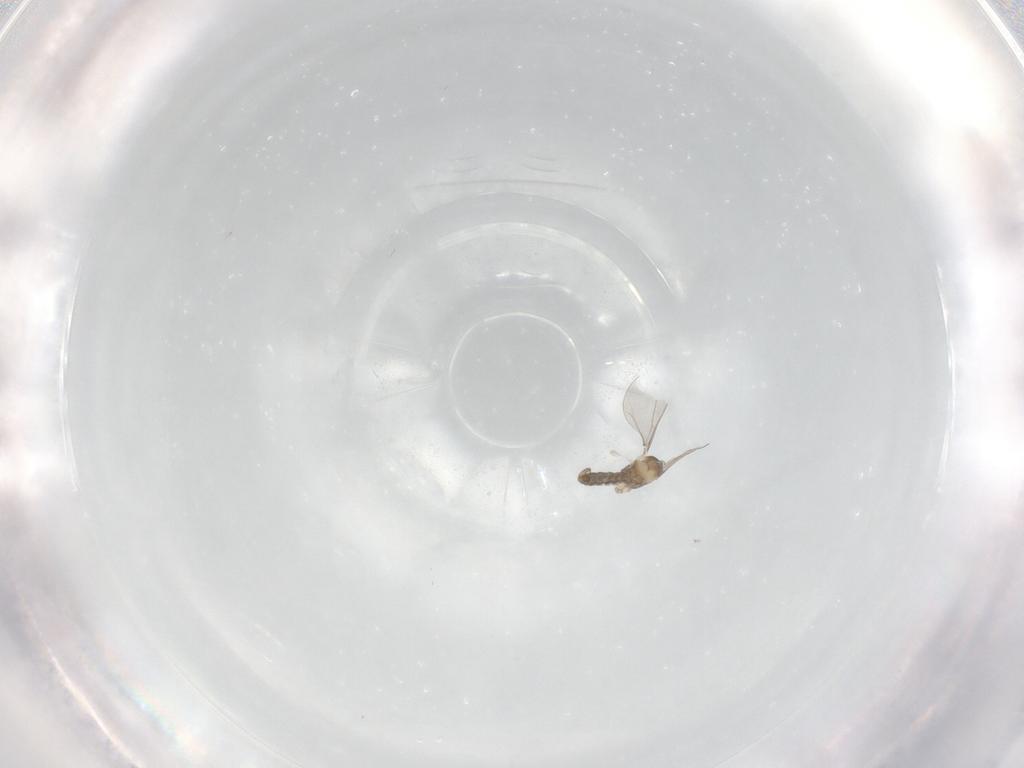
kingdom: Animalia
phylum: Arthropoda
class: Insecta
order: Diptera
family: Cecidomyiidae
